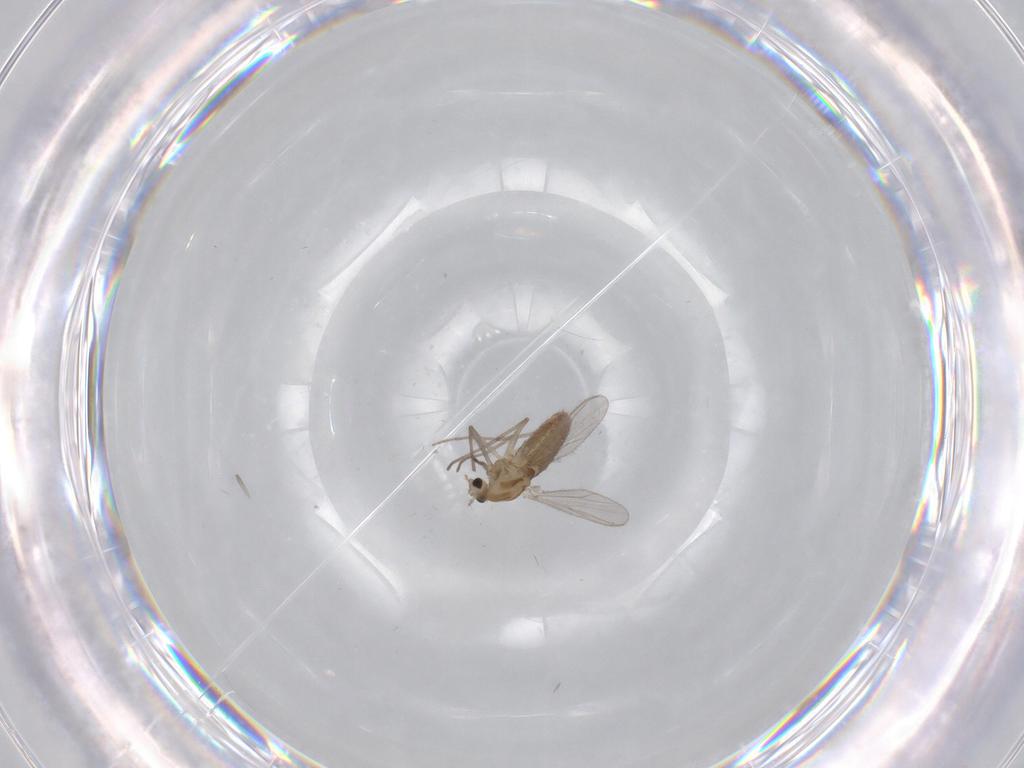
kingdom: Animalia
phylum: Arthropoda
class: Insecta
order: Diptera
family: Chironomidae
